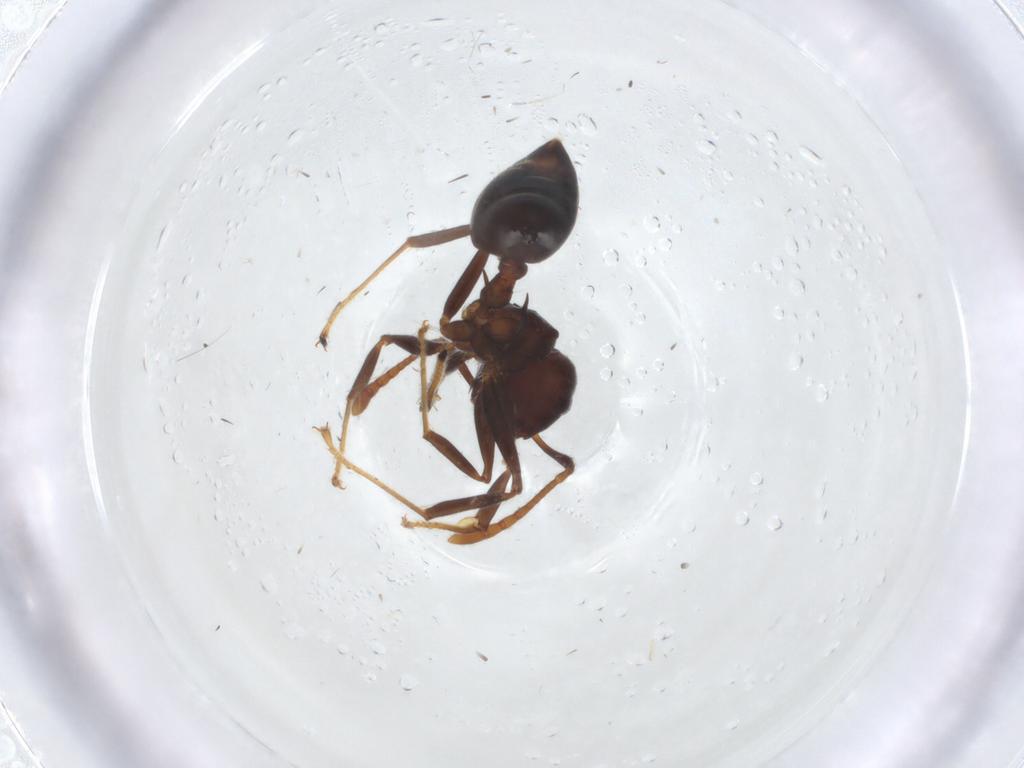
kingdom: Animalia
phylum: Arthropoda
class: Insecta
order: Hymenoptera
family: Formicidae
